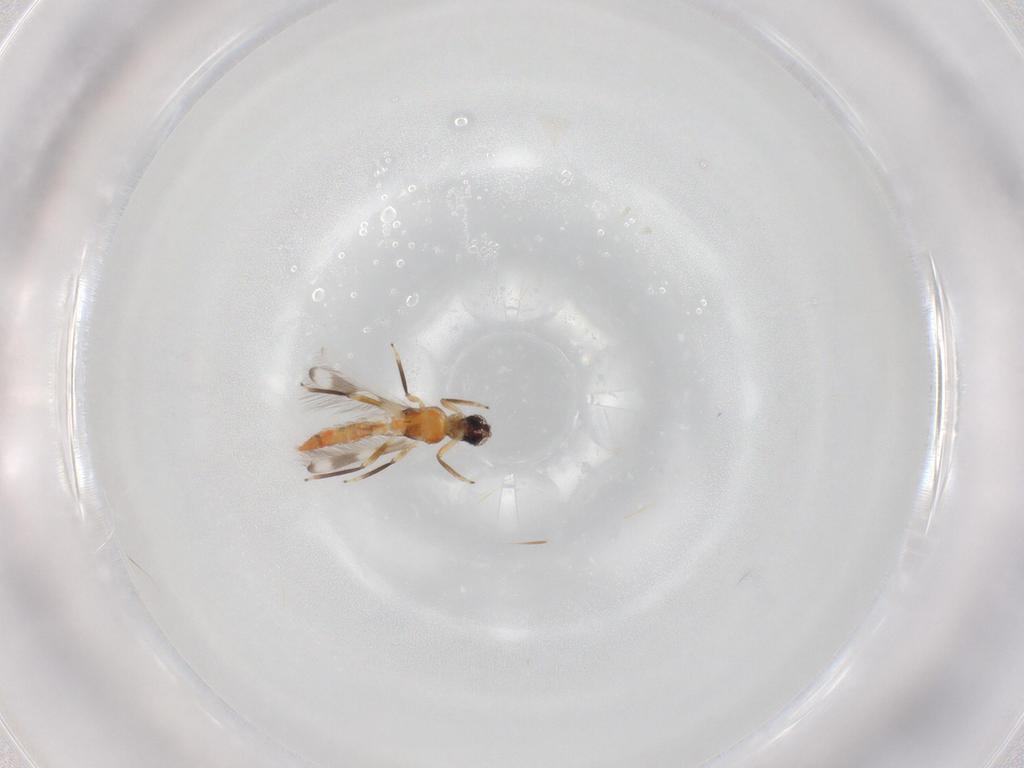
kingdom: Animalia
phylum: Arthropoda
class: Insecta
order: Thysanoptera
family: Aeolothripidae
